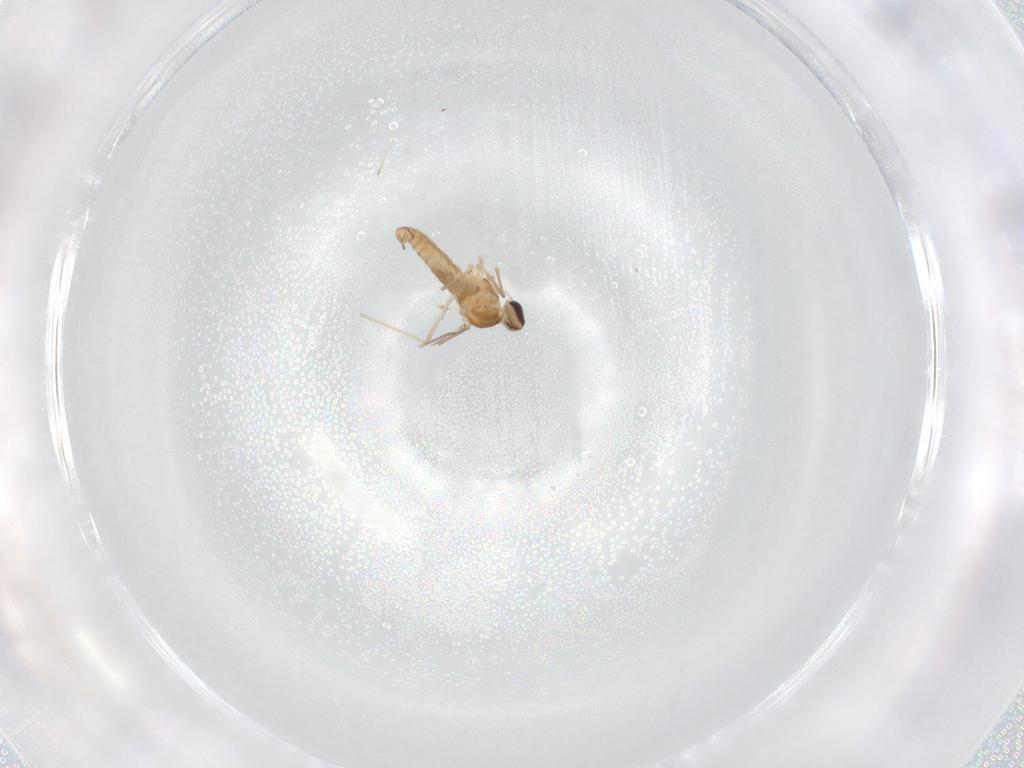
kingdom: Animalia
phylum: Arthropoda
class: Insecta
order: Diptera
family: Cecidomyiidae
